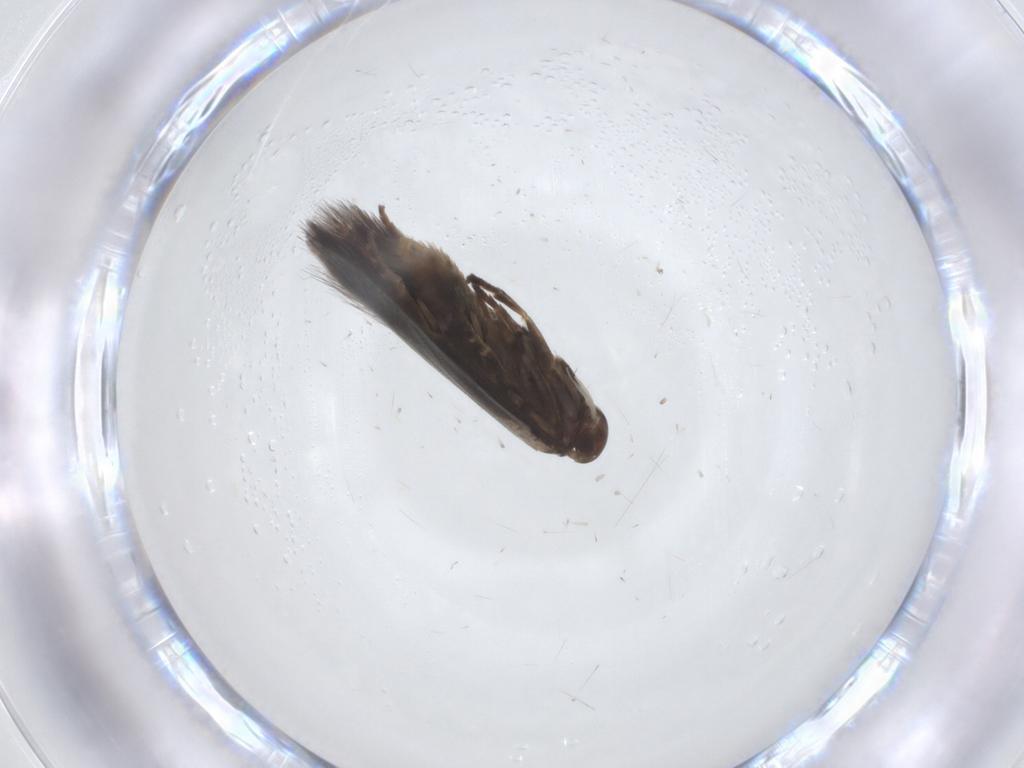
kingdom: Animalia
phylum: Arthropoda
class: Insecta
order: Lepidoptera
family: Elachistidae
